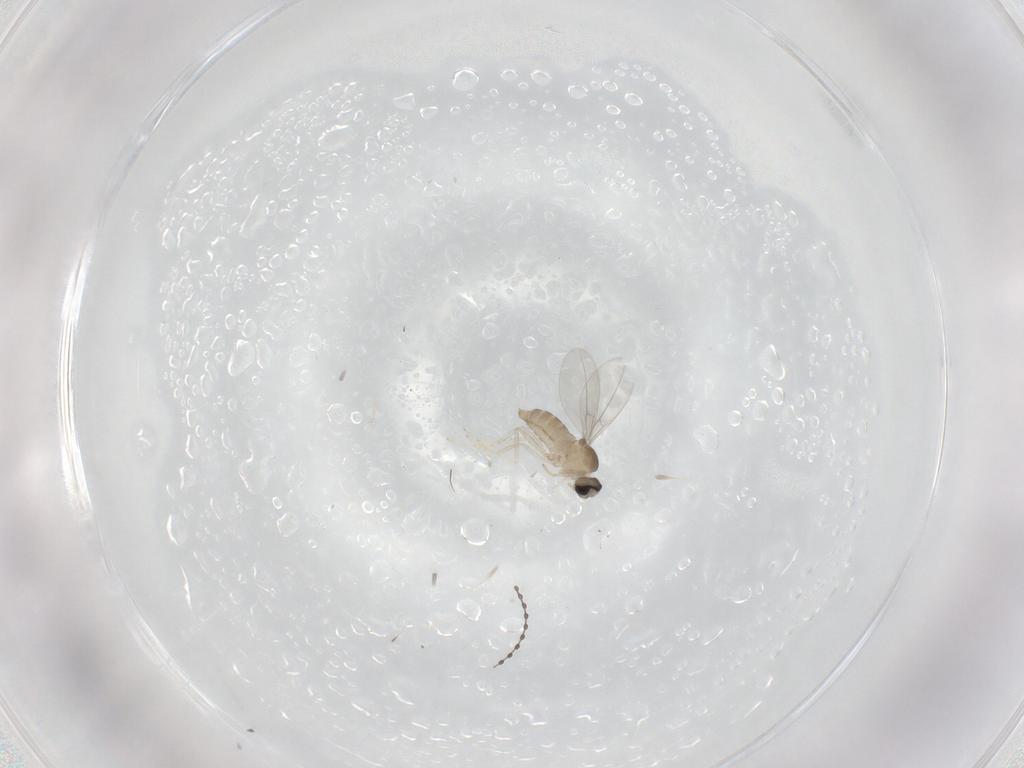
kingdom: Animalia
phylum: Arthropoda
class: Insecta
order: Diptera
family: Cecidomyiidae
